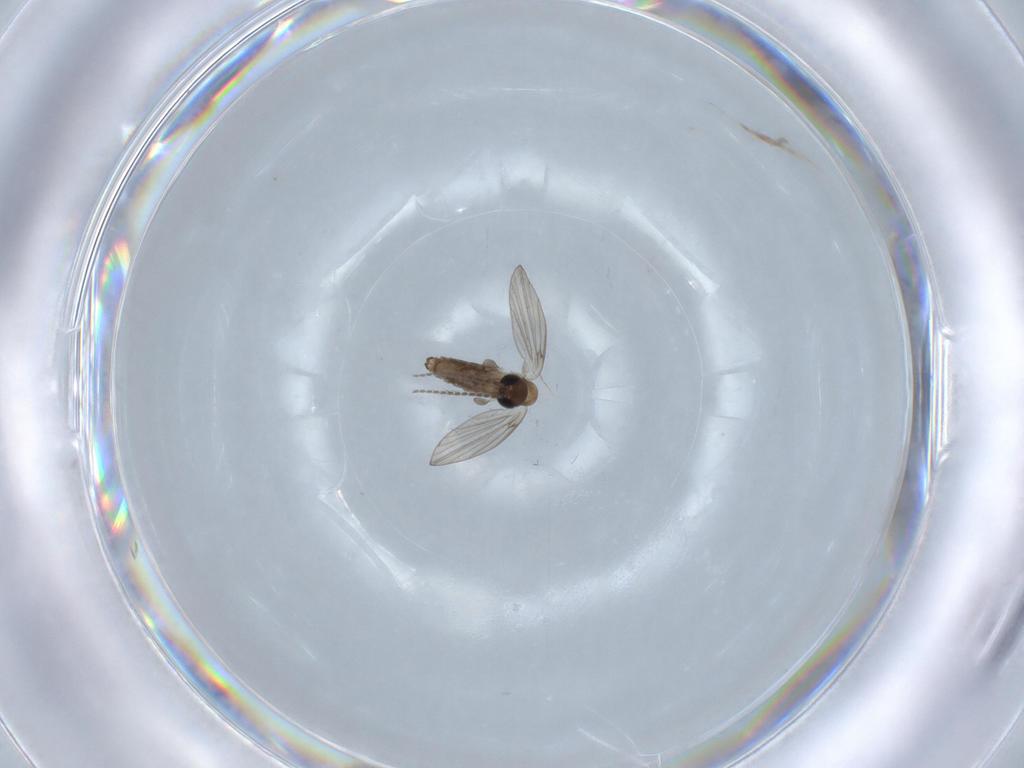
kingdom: Animalia
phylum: Arthropoda
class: Insecta
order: Diptera
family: Psychodidae
